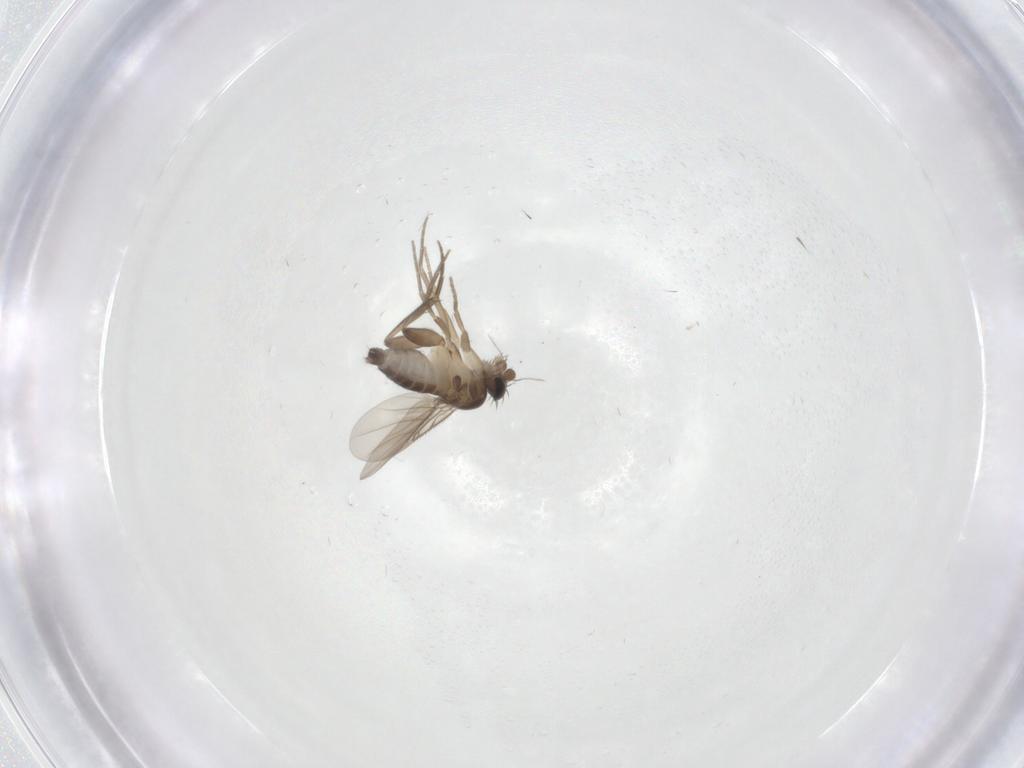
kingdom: Animalia
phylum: Arthropoda
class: Insecta
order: Diptera
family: Phoridae
